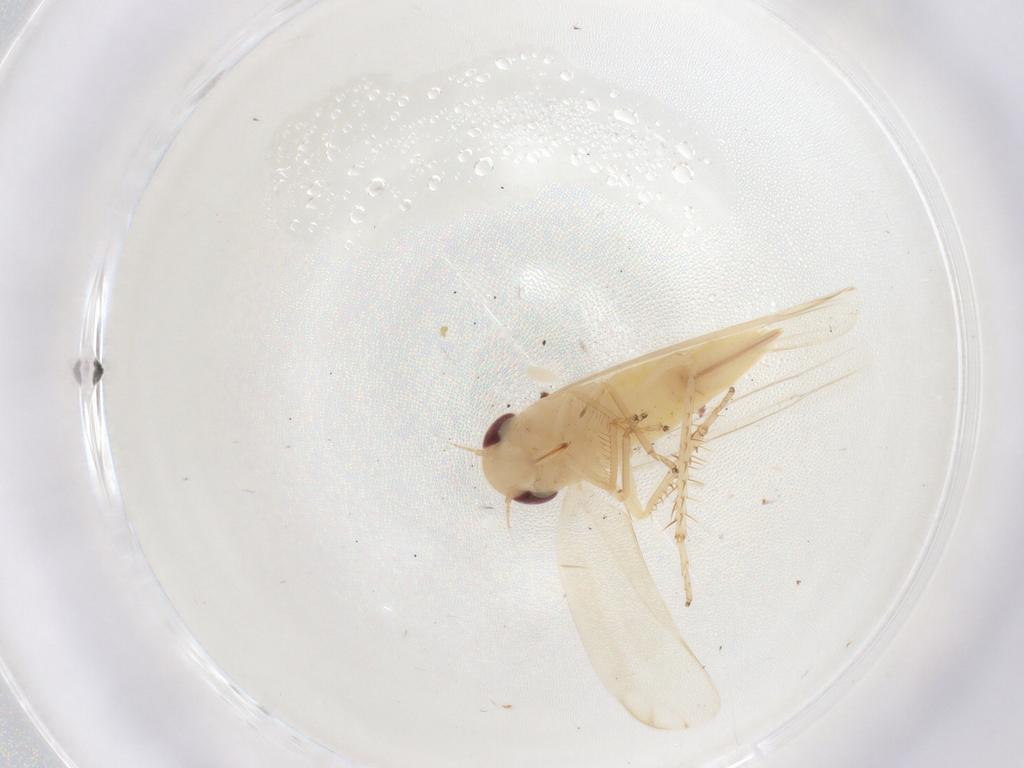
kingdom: Animalia
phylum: Arthropoda
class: Insecta
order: Hemiptera
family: Cicadellidae
